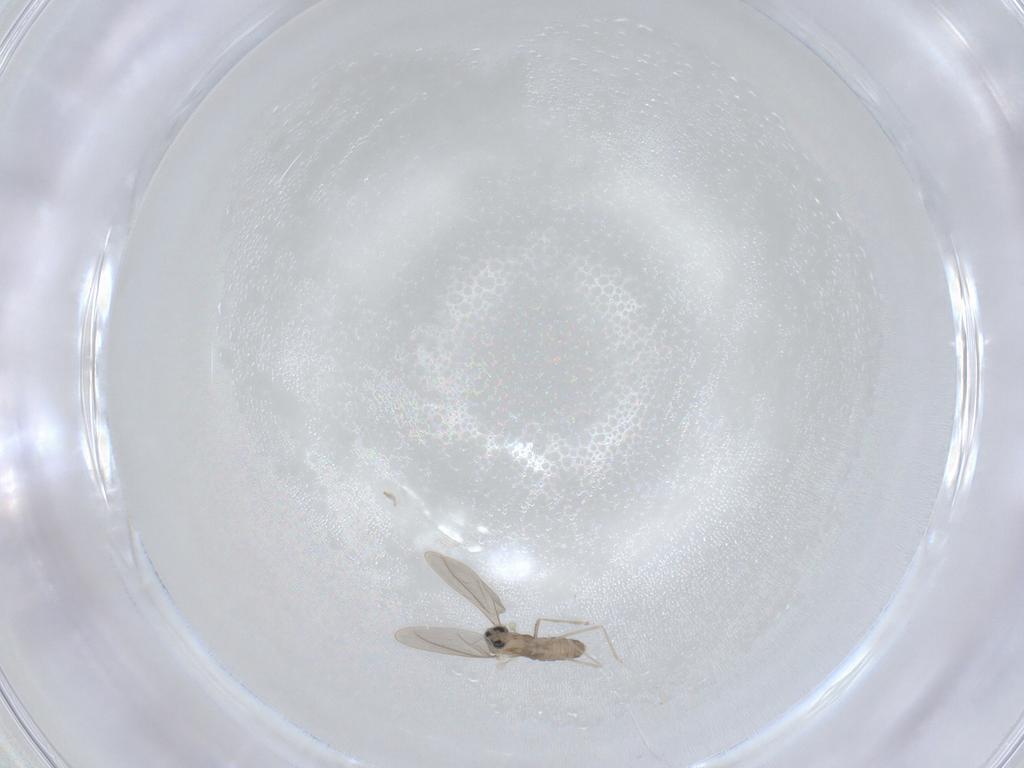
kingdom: Animalia
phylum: Arthropoda
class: Insecta
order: Diptera
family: Cecidomyiidae
